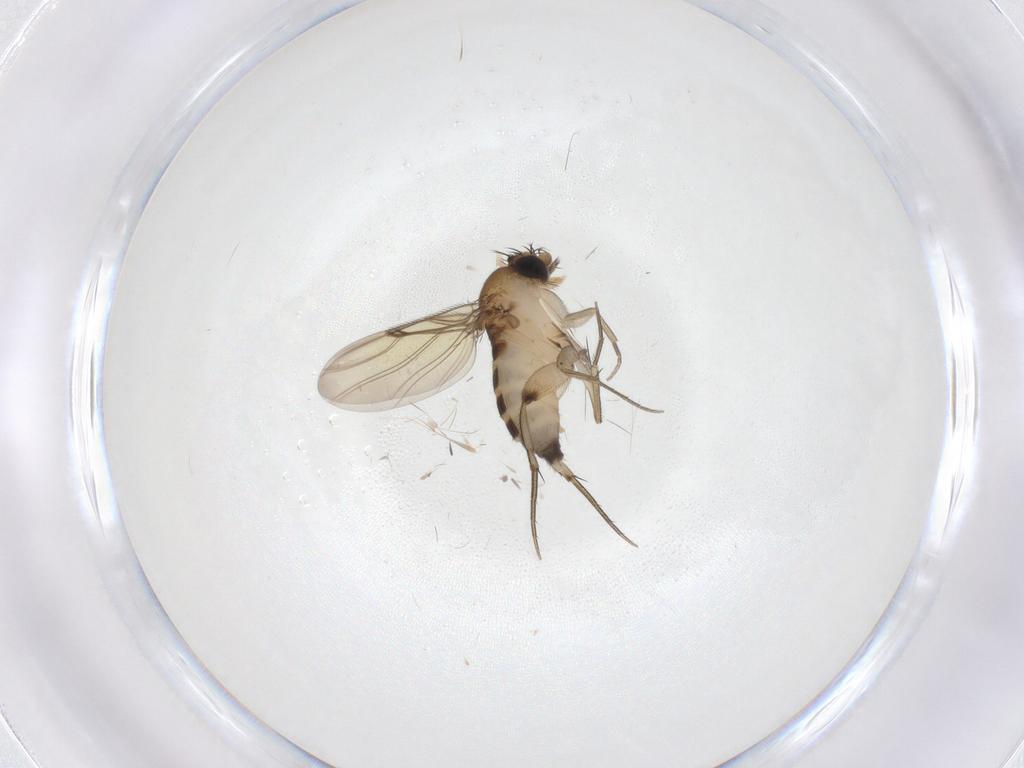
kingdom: Animalia
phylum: Arthropoda
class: Insecta
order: Diptera
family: Phoridae
